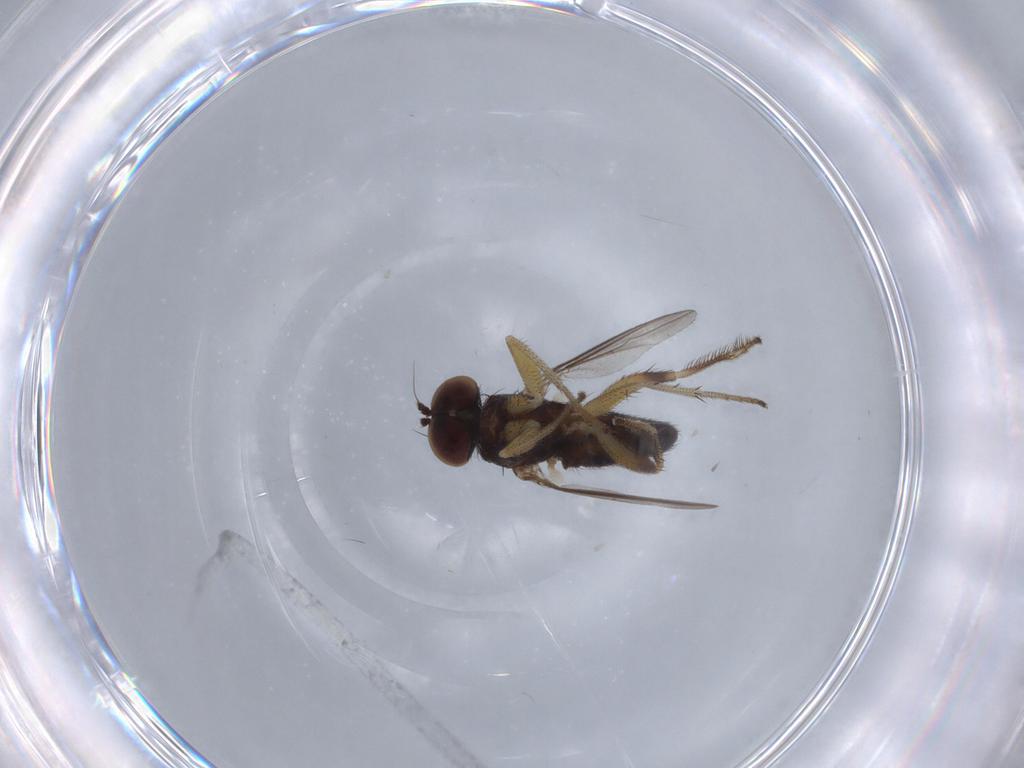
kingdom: Animalia
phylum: Arthropoda
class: Insecta
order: Diptera
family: Dolichopodidae
